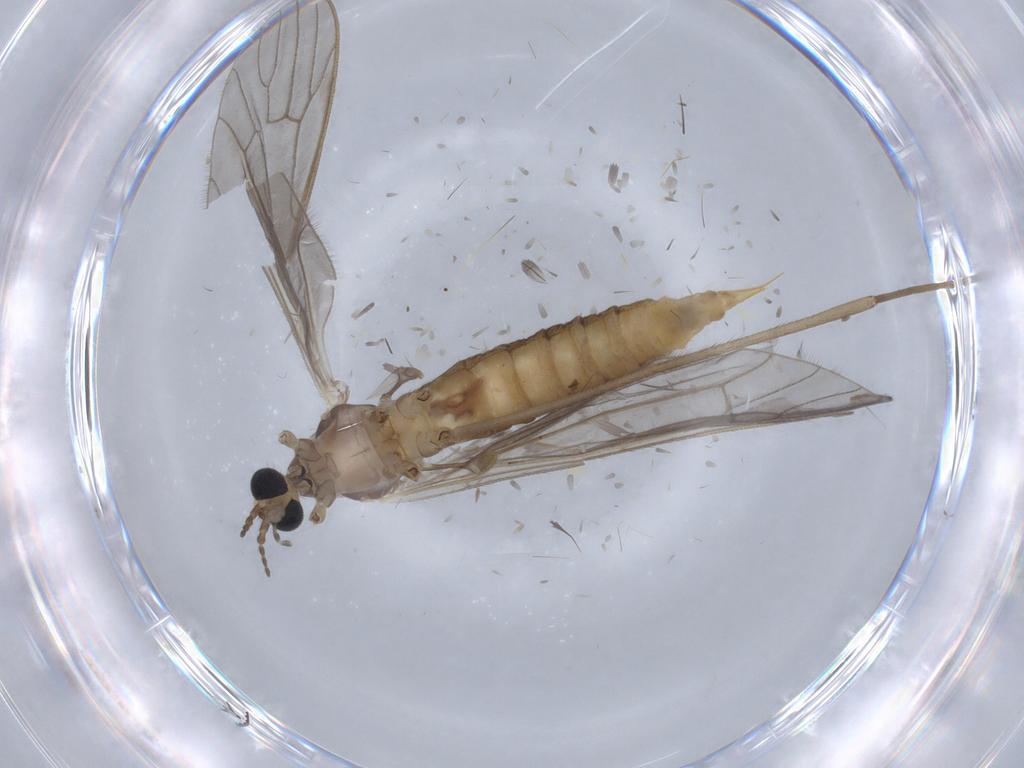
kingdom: Animalia
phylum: Arthropoda
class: Insecta
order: Diptera
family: Limoniidae
